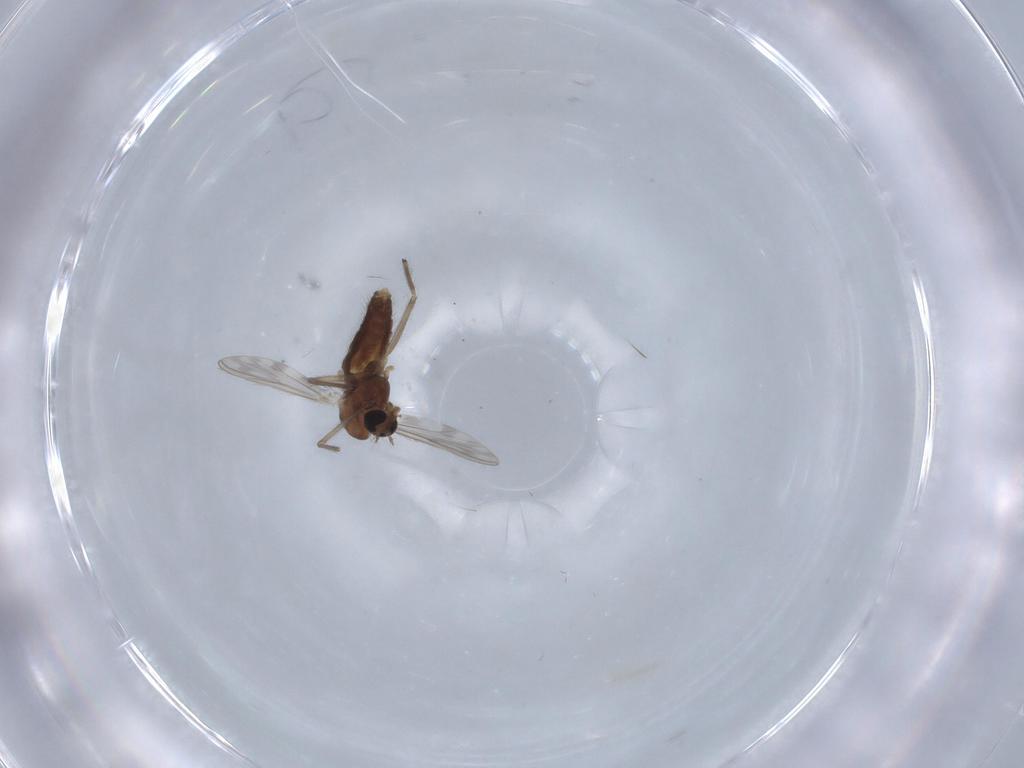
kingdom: Animalia
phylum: Arthropoda
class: Insecta
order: Diptera
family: Chironomidae
